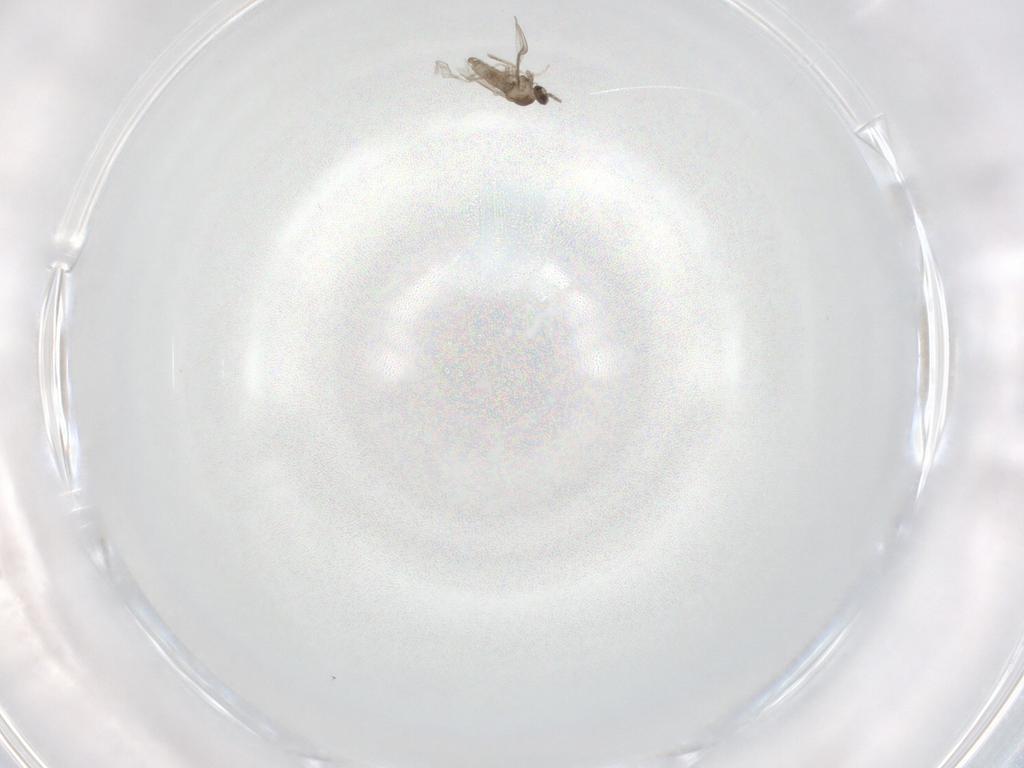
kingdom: Animalia
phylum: Arthropoda
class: Insecta
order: Diptera
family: Cecidomyiidae
